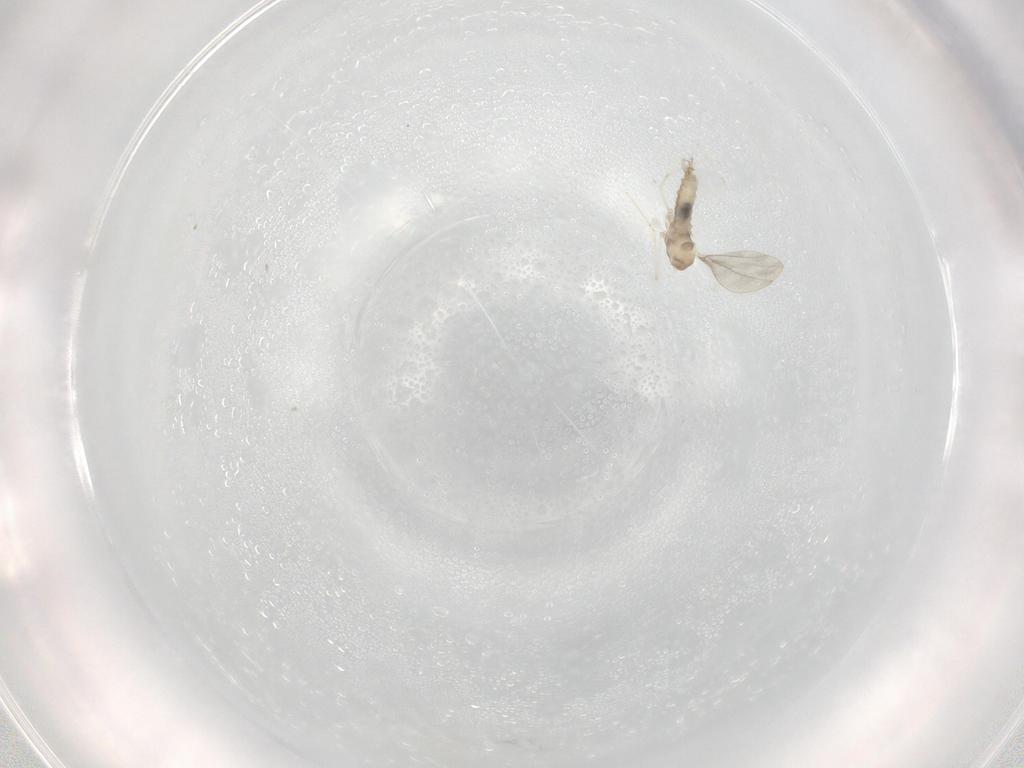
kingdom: Animalia
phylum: Arthropoda
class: Insecta
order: Diptera
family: Cecidomyiidae
